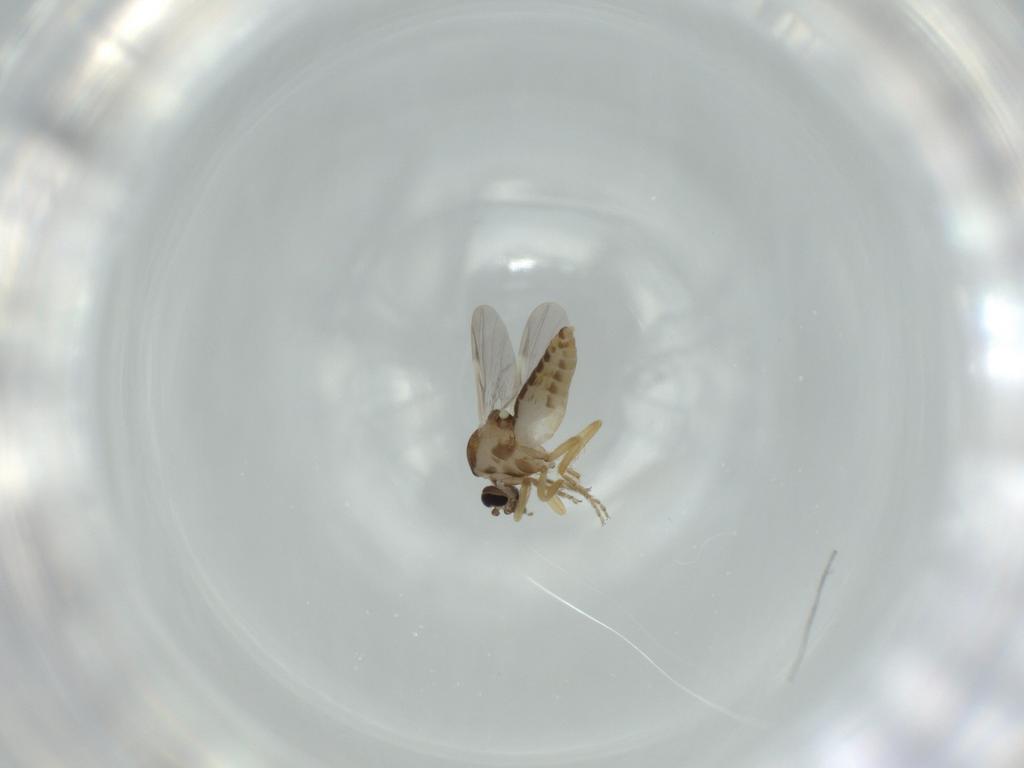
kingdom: Animalia
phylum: Arthropoda
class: Insecta
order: Diptera
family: Ceratopogonidae
